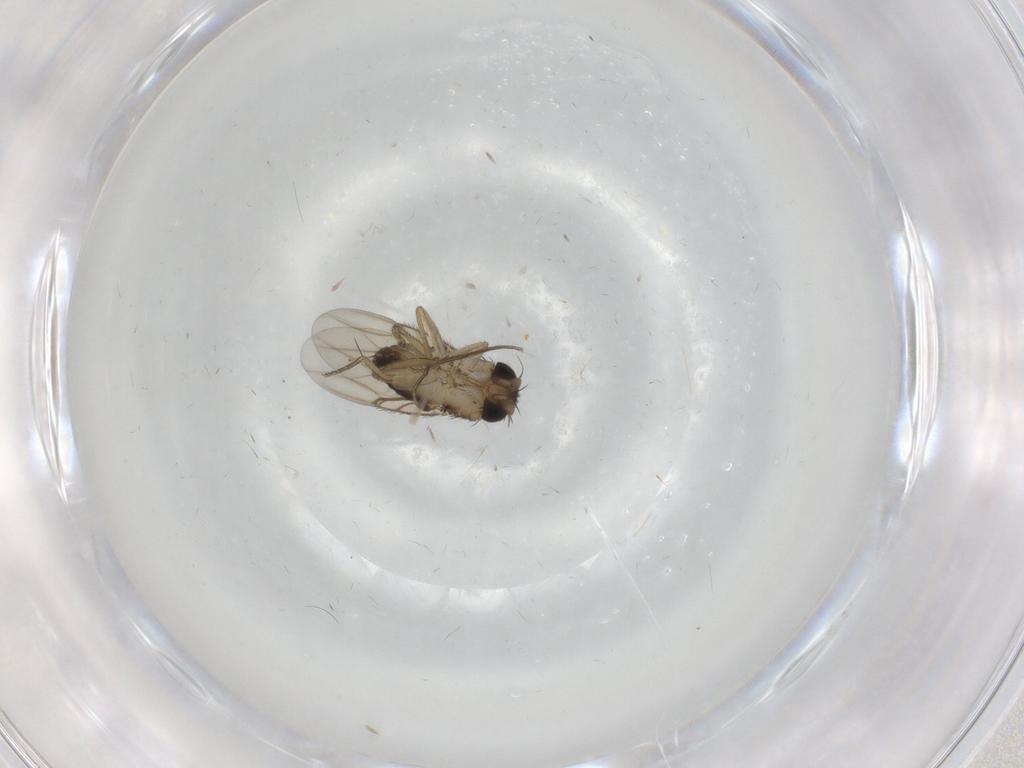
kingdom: Animalia
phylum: Arthropoda
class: Insecta
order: Diptera
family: Phoridae
